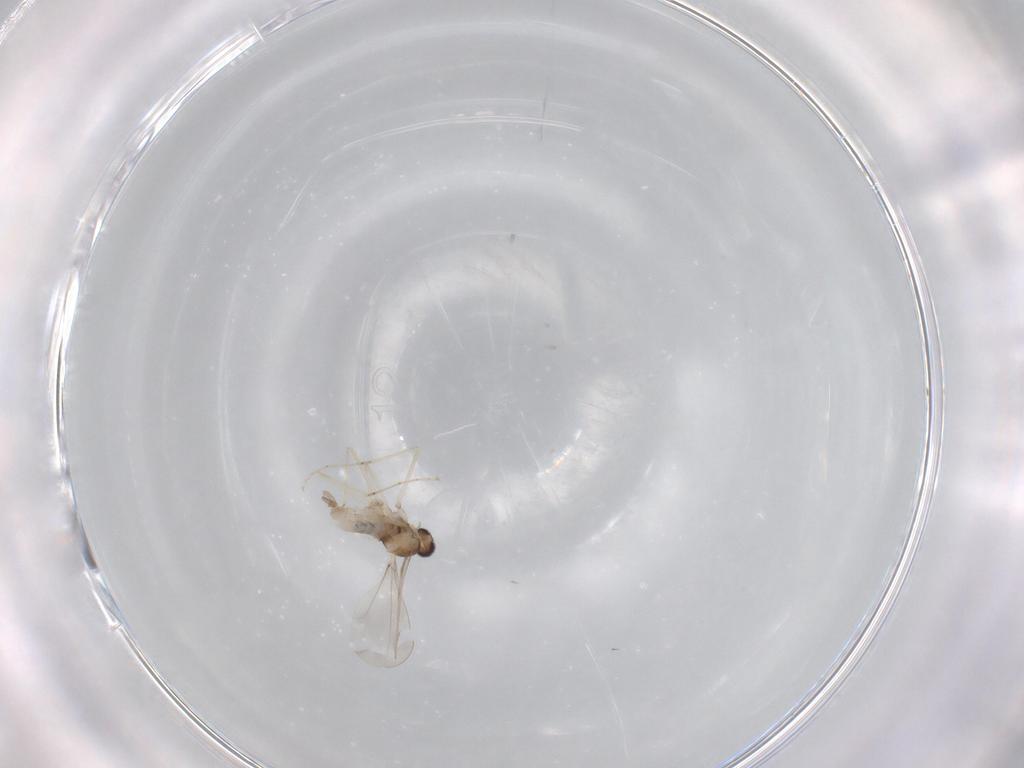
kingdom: Animalia
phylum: Arthropoda
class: Insecta
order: Diptera
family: Cecidomyiidae
